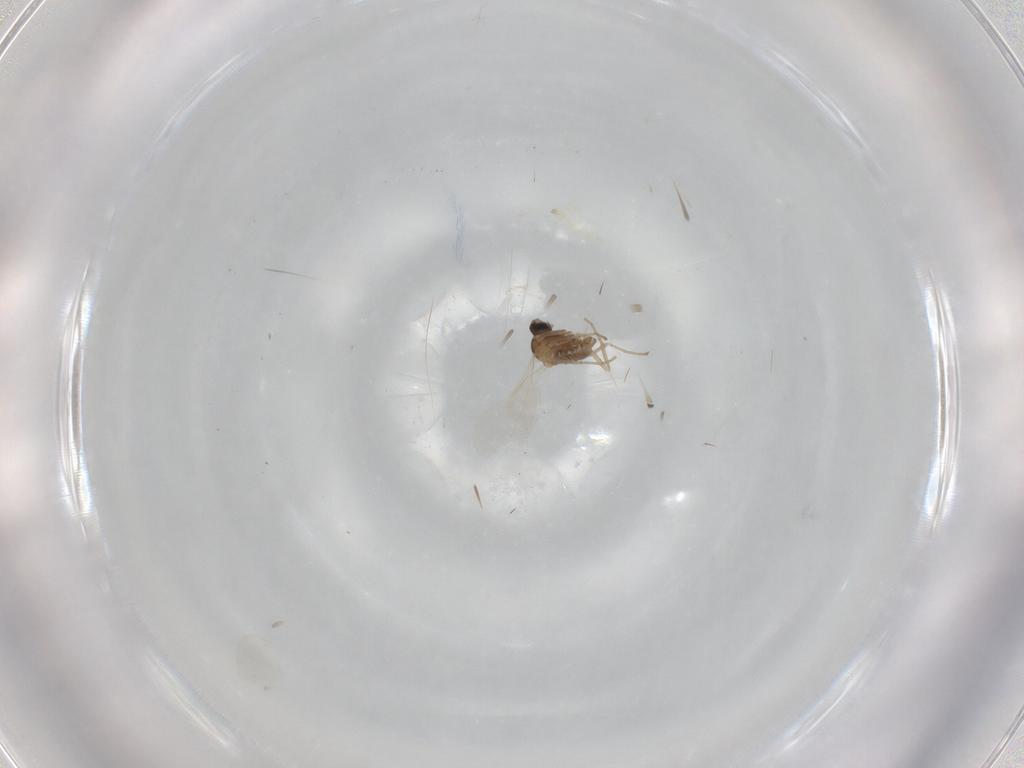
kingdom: Animalia
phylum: Arthropoda
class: Insecta
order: Diptera
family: Cecidomyiidae
